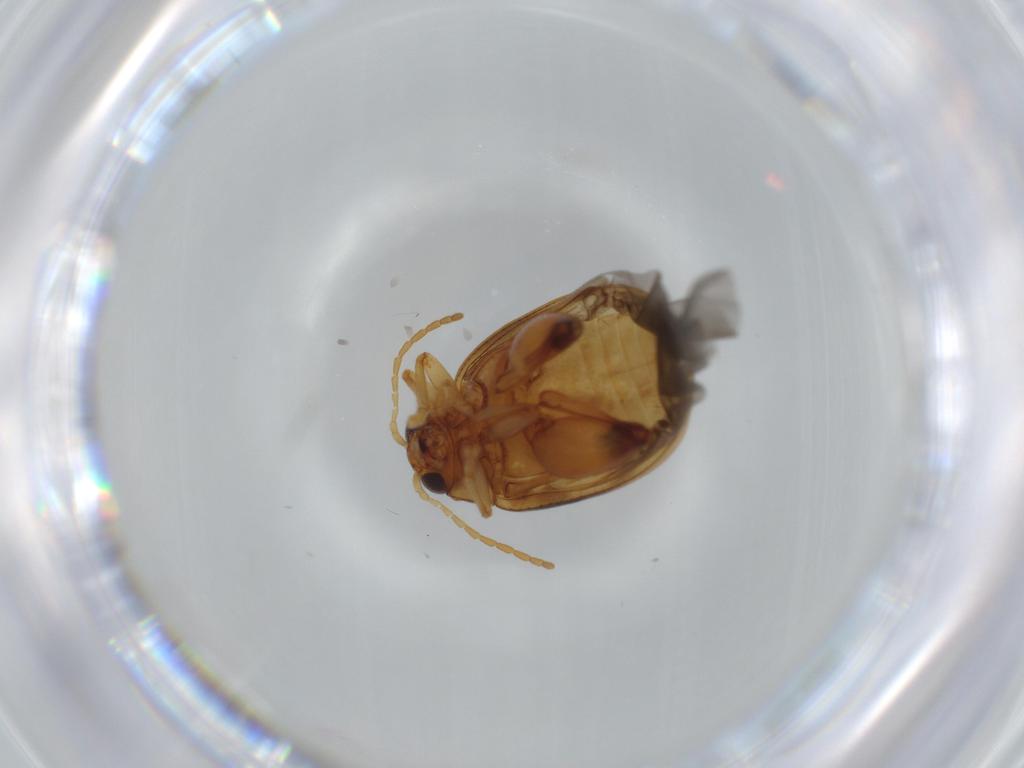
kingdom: Animalia
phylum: Arthropoda
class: Insecta
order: Coleoptera
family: Chrysomelidae
